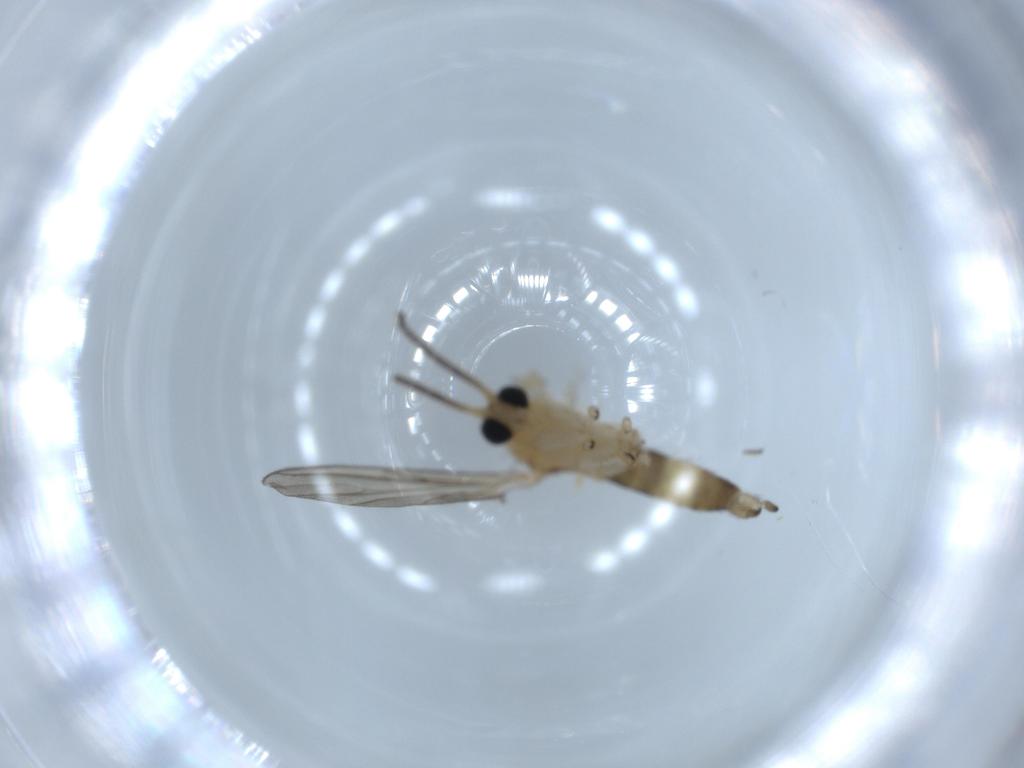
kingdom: Animalia
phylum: Arthropoda
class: Insecta
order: Diptera
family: Sciaridae
